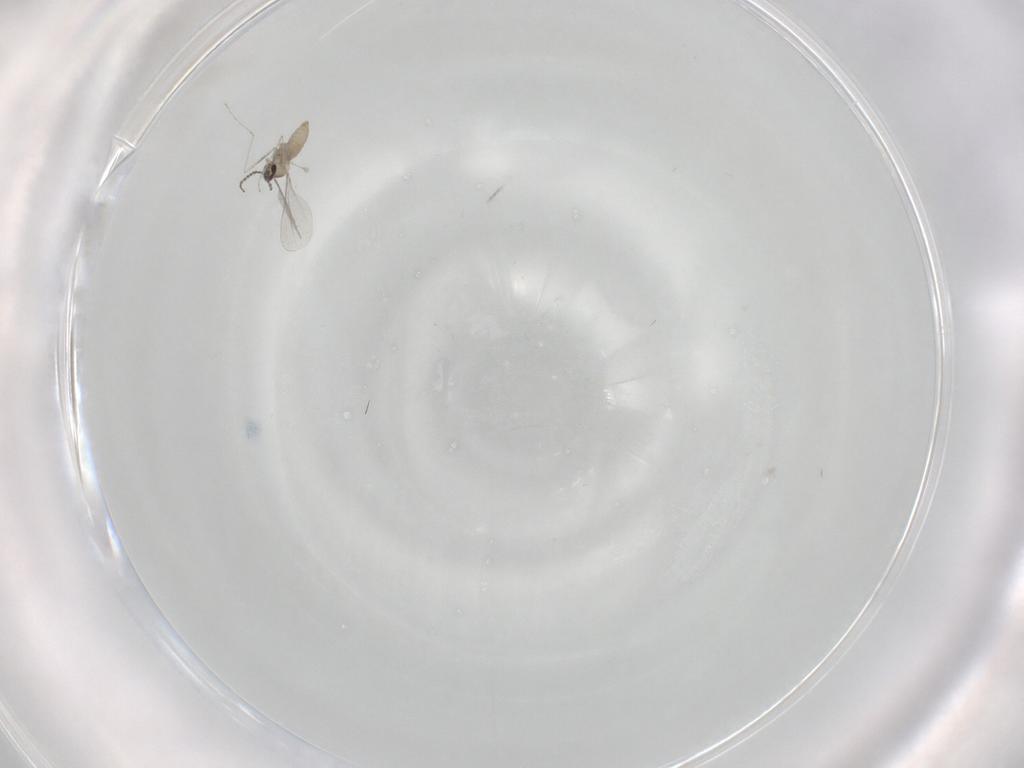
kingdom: Animalia
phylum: Arthropoda
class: Insecta
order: Diptera
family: Cecidomyiidae
